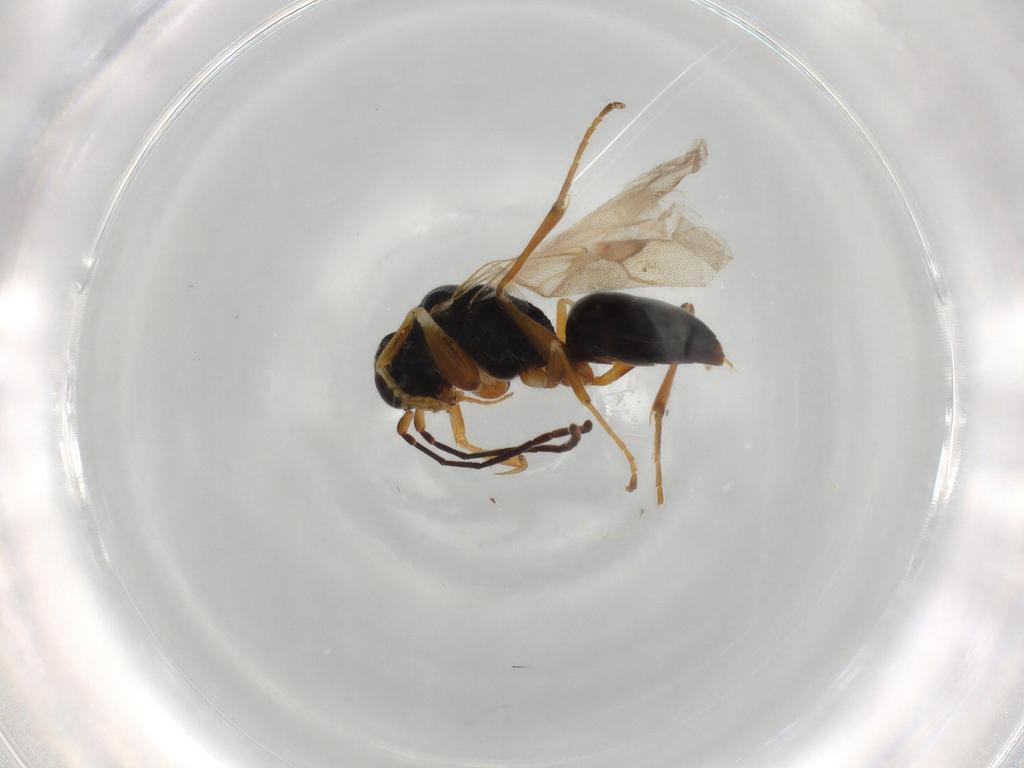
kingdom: Animalia
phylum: Arthropoda
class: Insecta
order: Hymenoptera
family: Dryinidae
